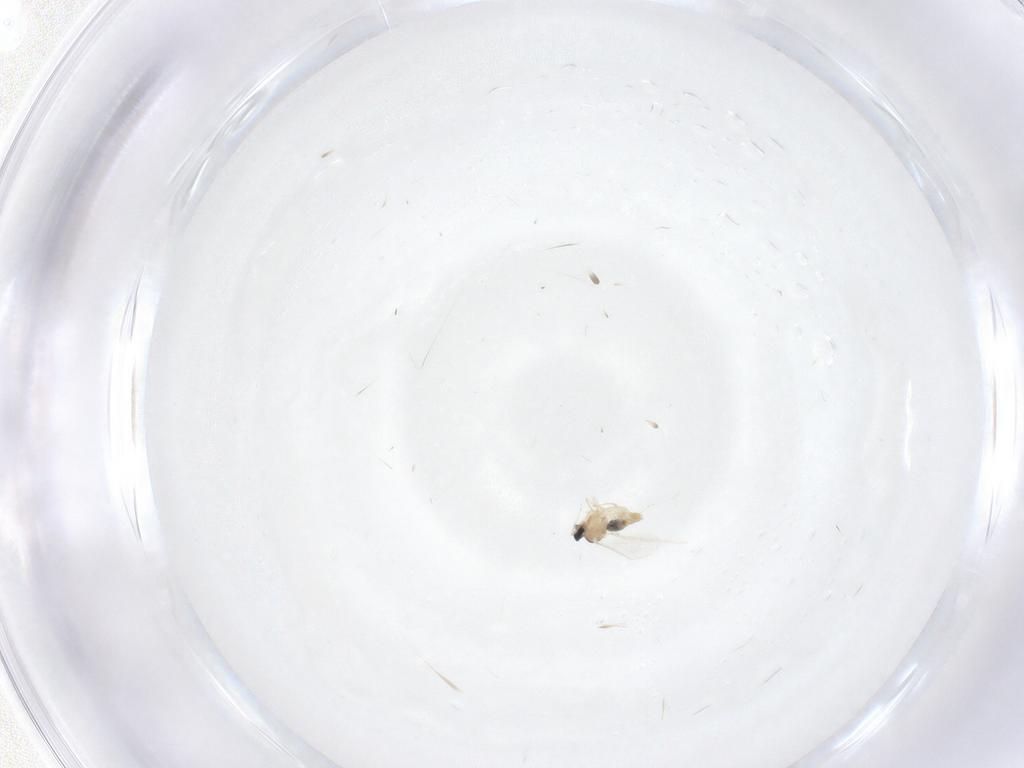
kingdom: Animalia
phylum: Arthropoda
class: Insecta
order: Diptera
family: Cecidomyiidae
